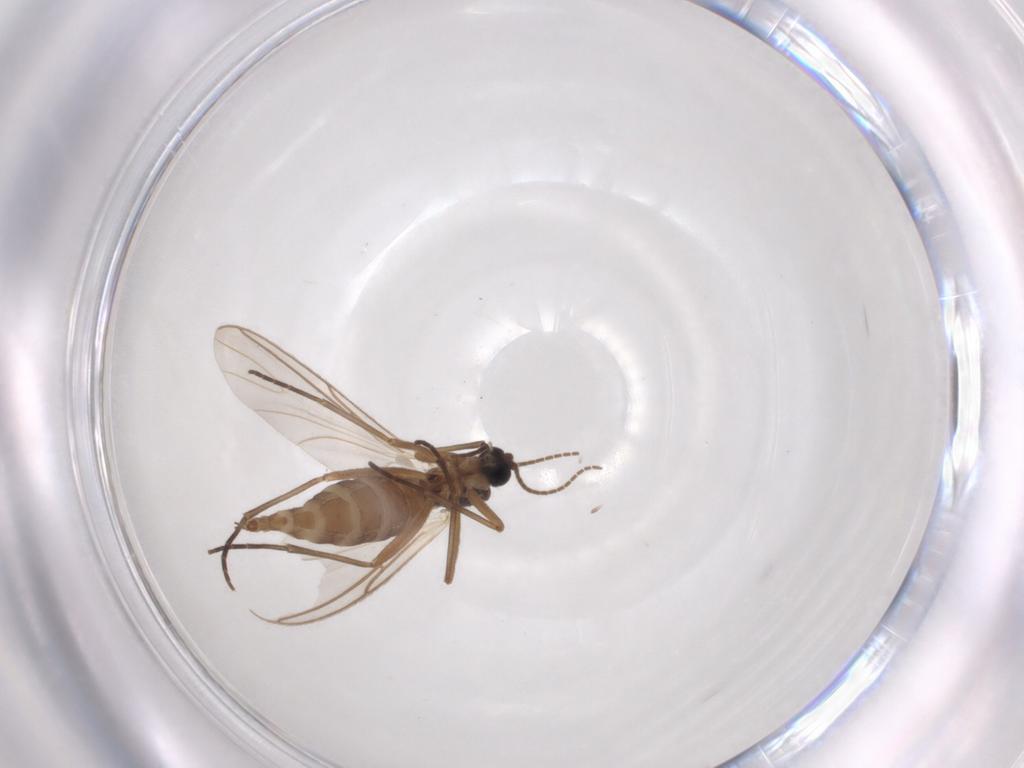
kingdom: Animalia
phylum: Arthropoda
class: Insecta
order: Diptera
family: Sciaridae
